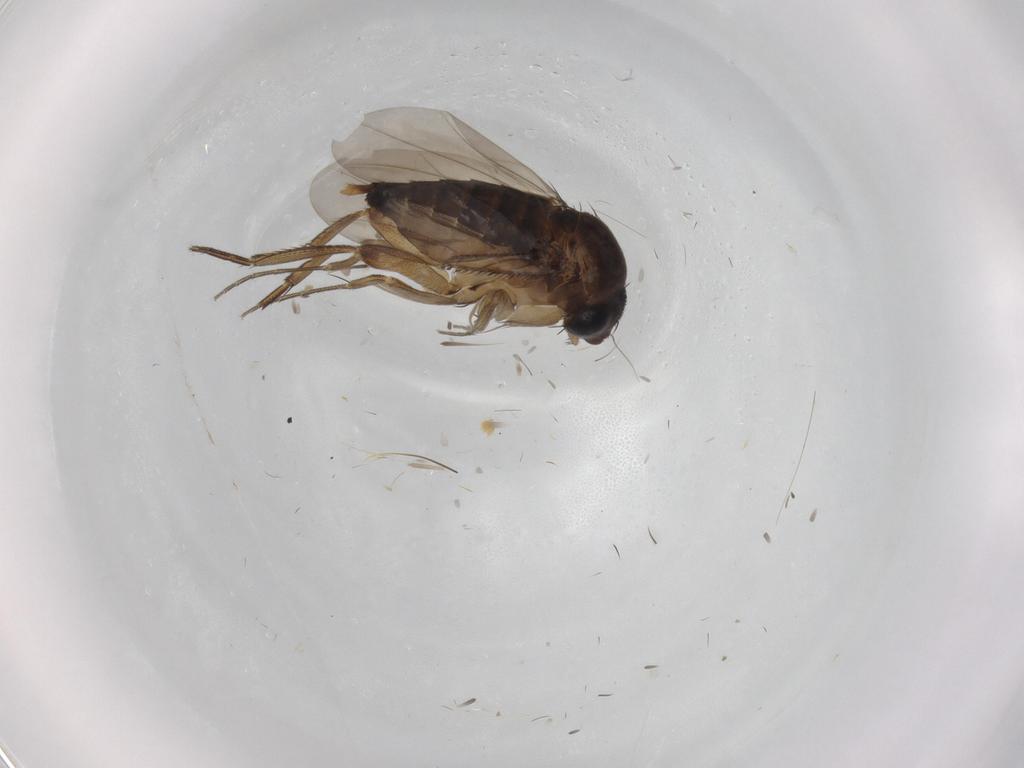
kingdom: Animalia
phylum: Arthropoda
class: Insecta
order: Diptera
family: Phoridae
